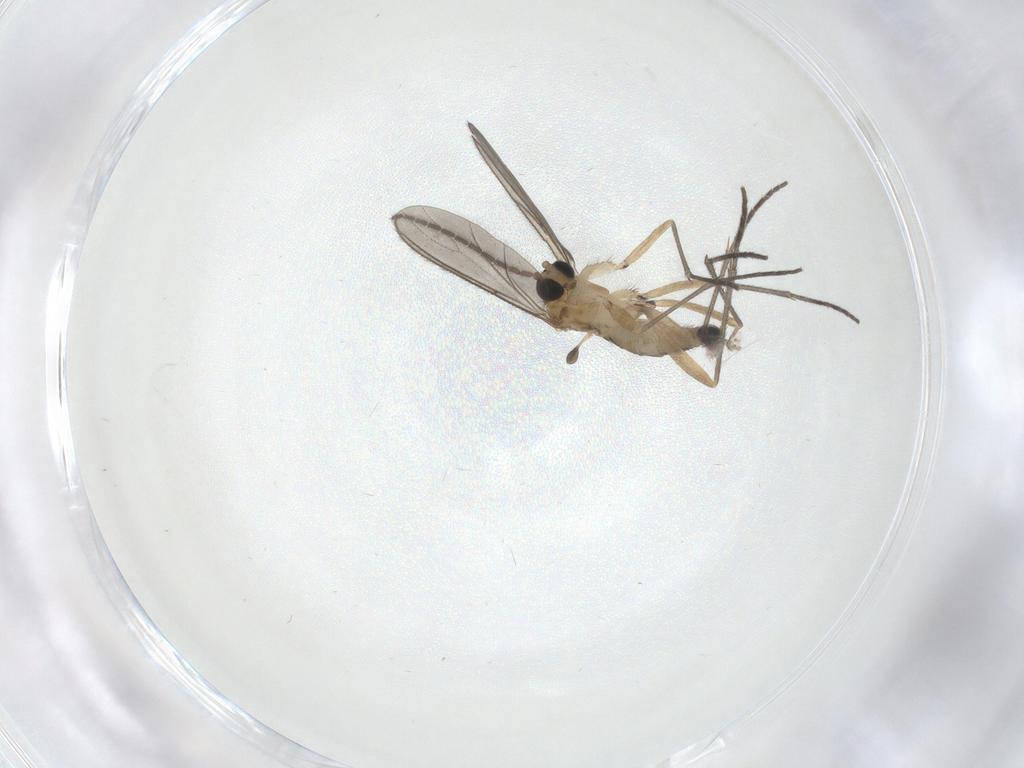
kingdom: Animalia
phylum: Arthropoda
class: Insecta
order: Diptera
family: Sciaridae
